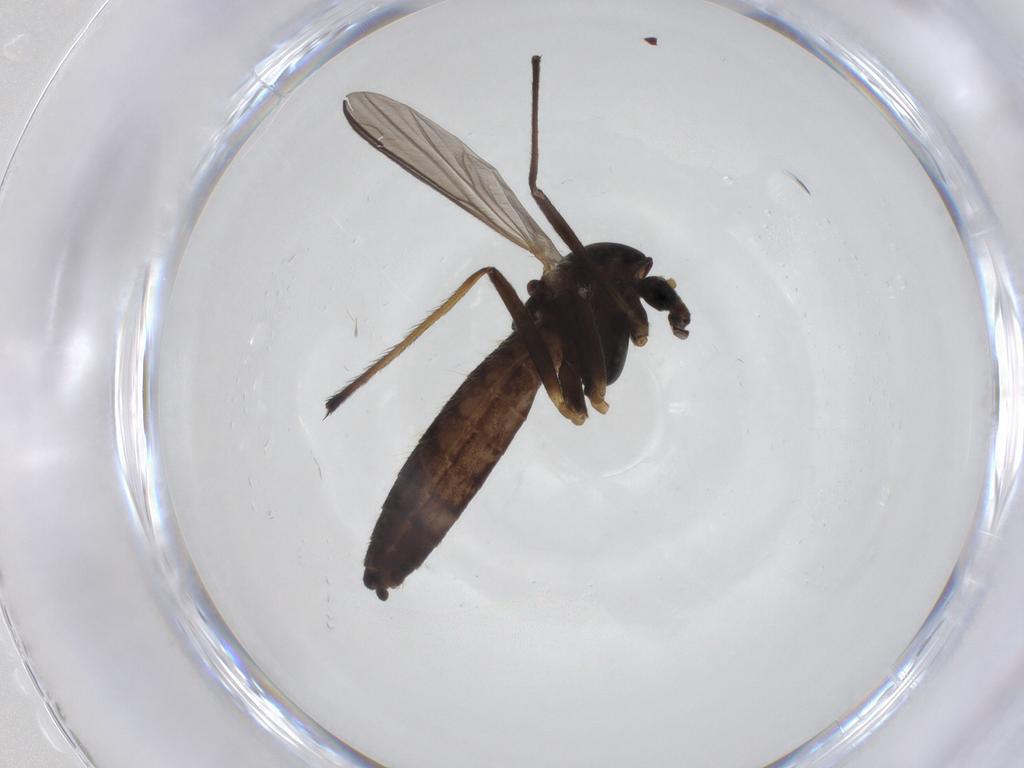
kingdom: Animalia
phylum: Arthropoda
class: Insecta
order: Diptera
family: Chironomidae
